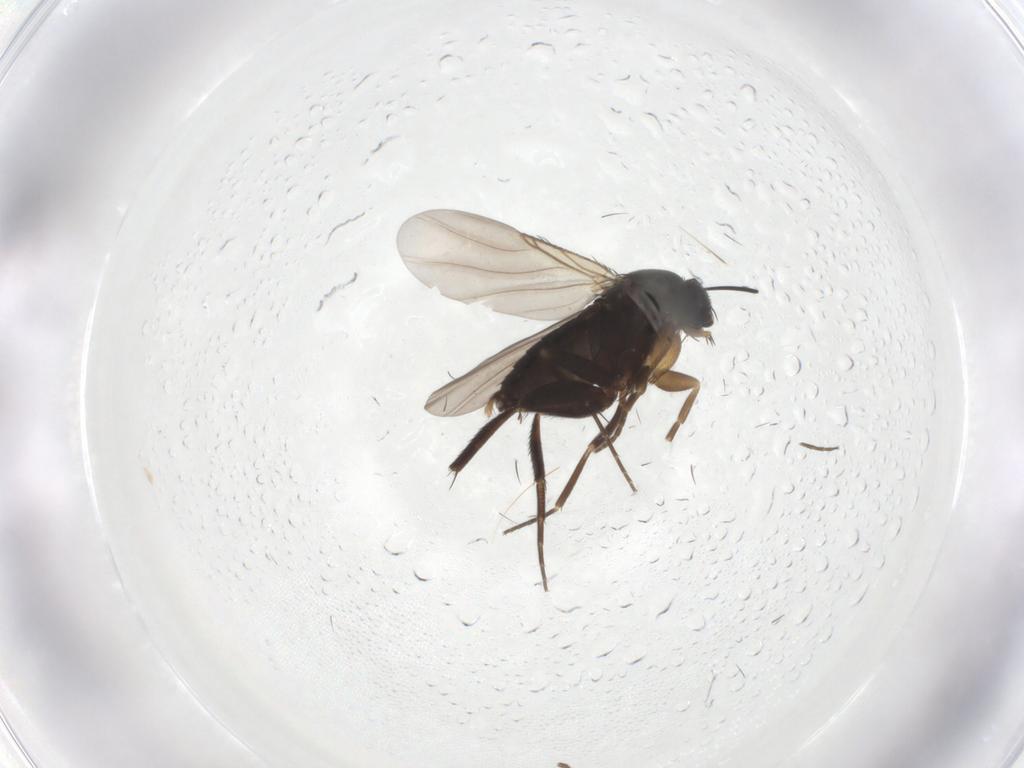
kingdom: Animalia
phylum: Arthropoda
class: Insecta
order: Diptera
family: Phoridae
